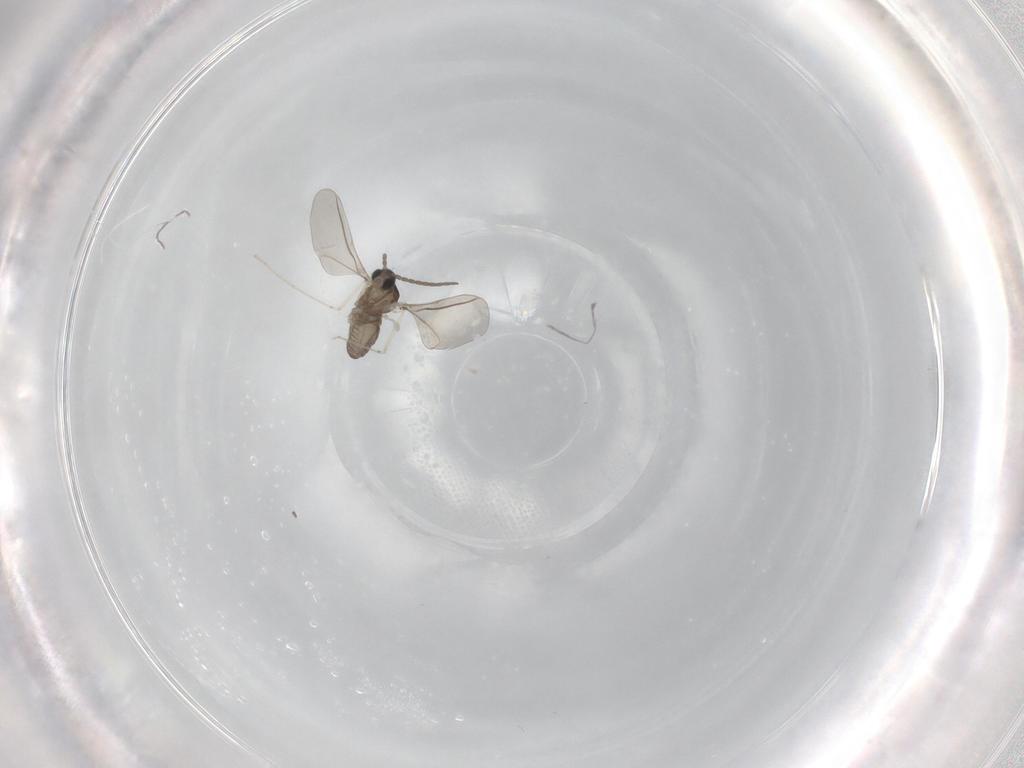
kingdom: Animalia
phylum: Arthropoda
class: Insecta
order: Diptera
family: Cecidomyiidae
